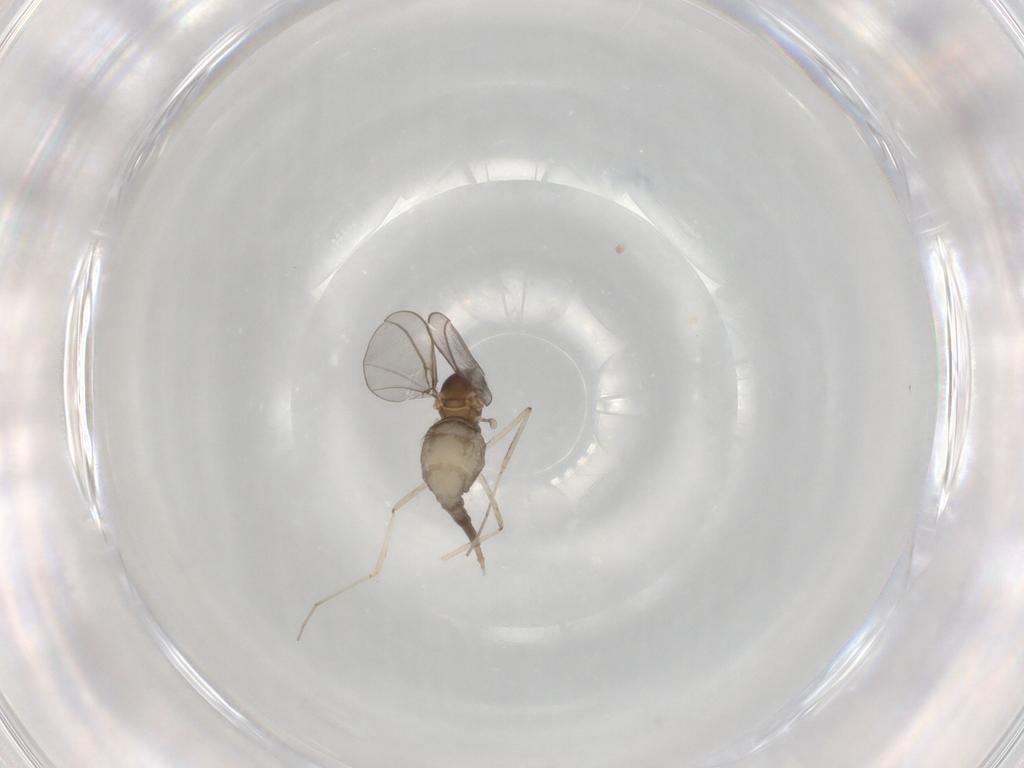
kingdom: Animalia
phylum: Arthropoda
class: Insecta
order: Diptera
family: Cecidomyiidae
